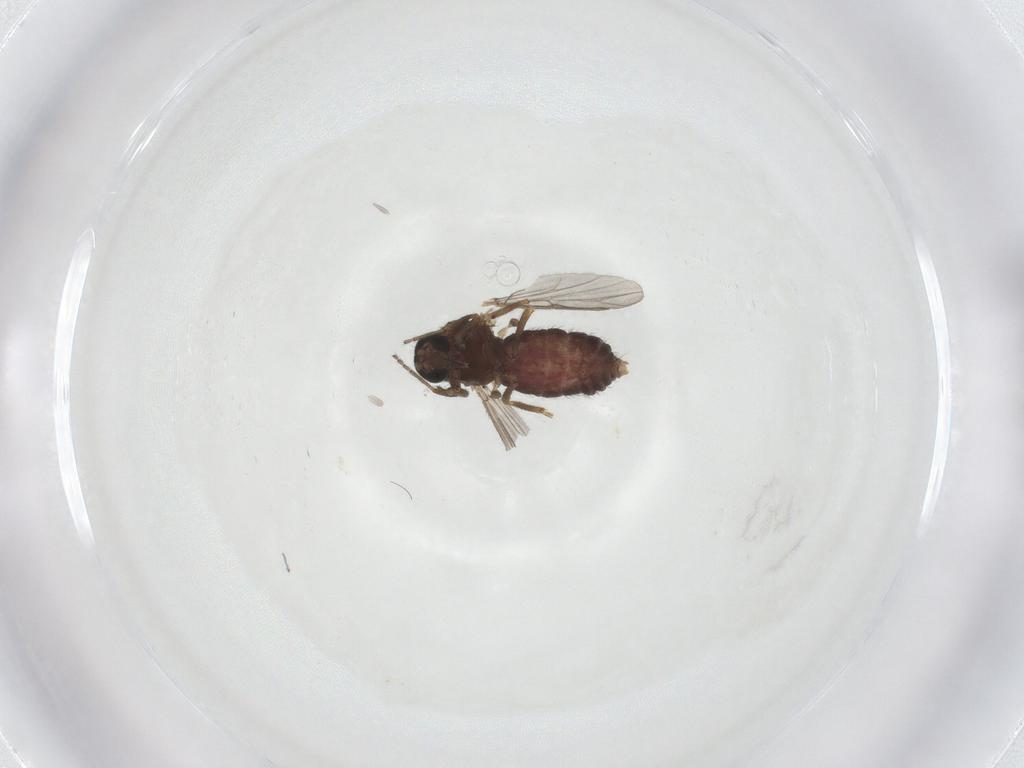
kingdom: Animalia
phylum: Arthropoda
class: Insecta
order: Diptera
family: Ceratopogonidae
